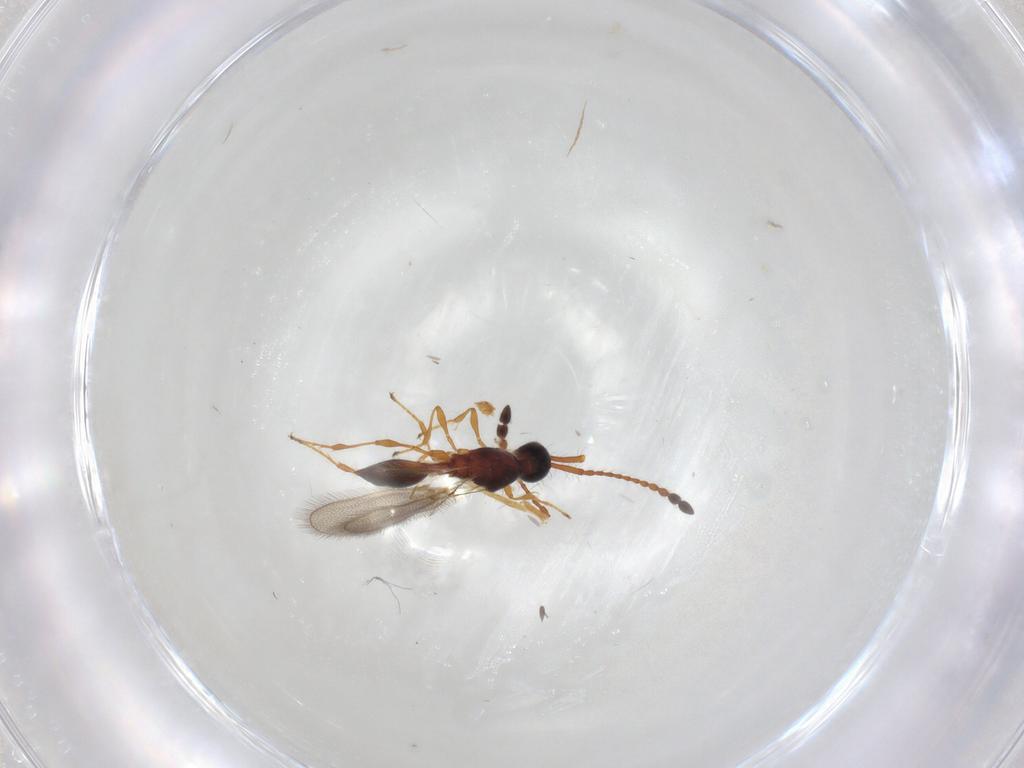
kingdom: Animalia
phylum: Arthropoda
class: Insecta
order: Hymenoptera
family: Diapriidae
